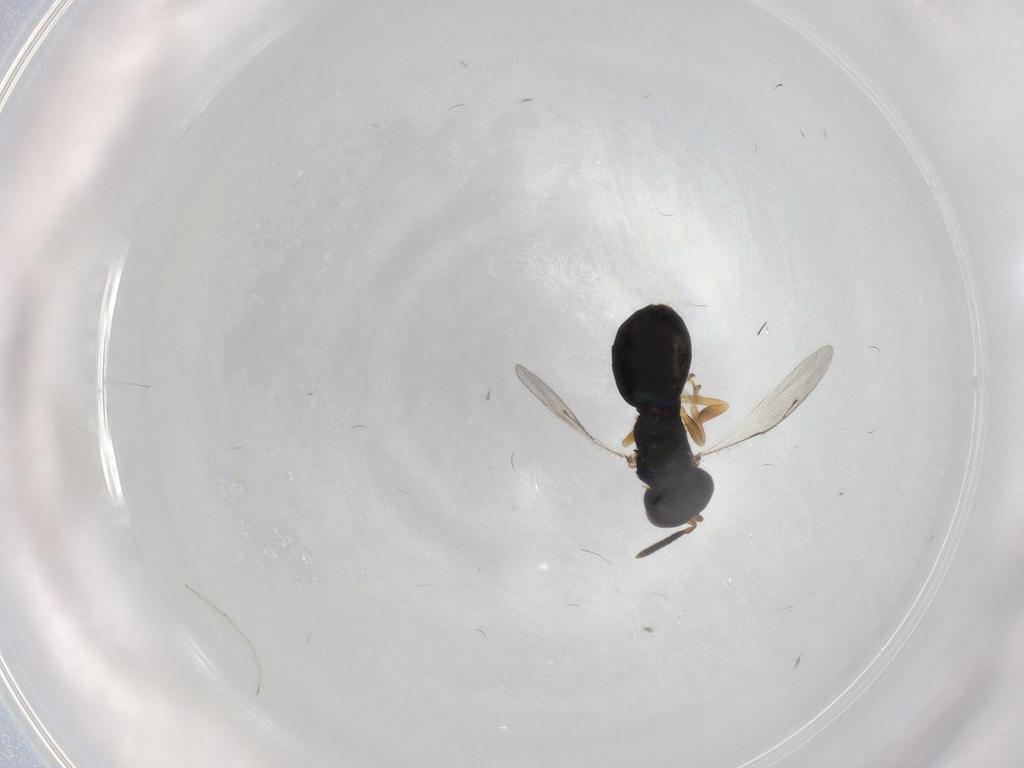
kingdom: Animalia
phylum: Arthropoda
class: Insecta
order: Hymenoptera
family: Pteromalidae
